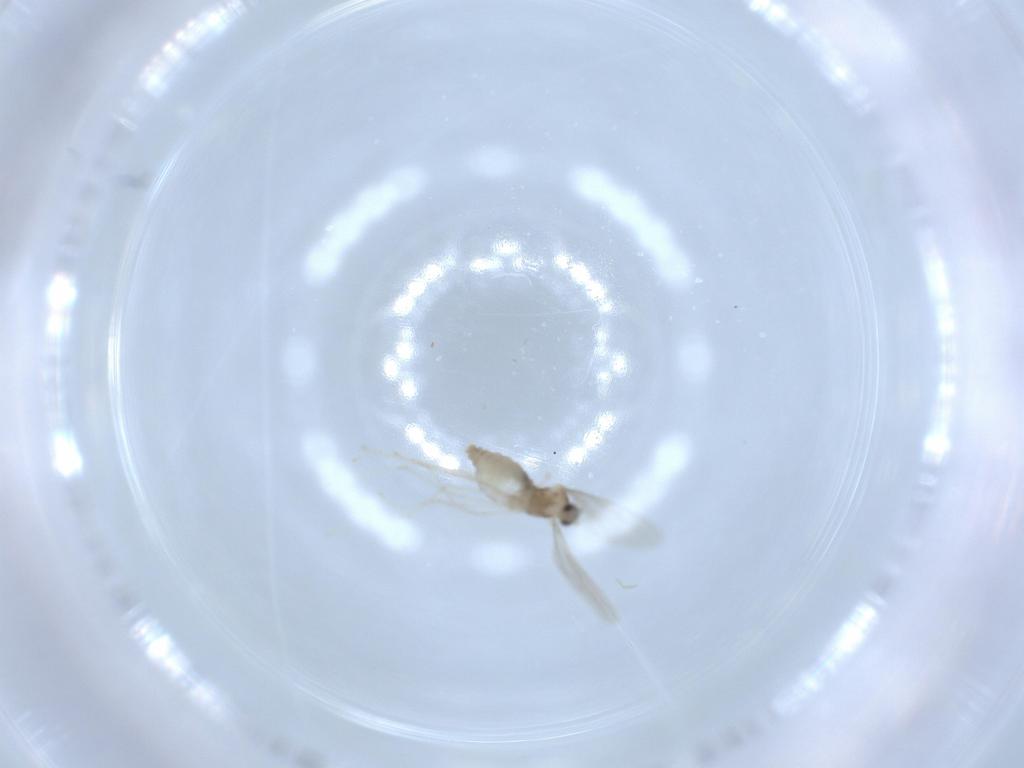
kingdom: Animalia
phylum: Arthropoda
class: Insecta
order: Diptera
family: Cecidomyiidae
